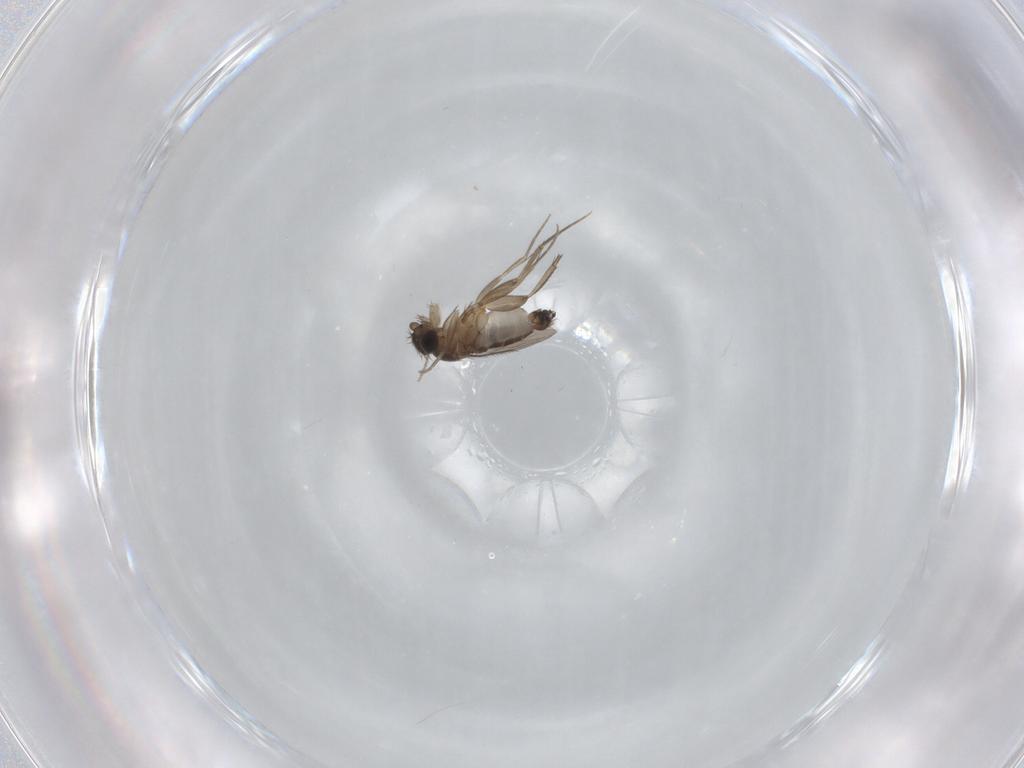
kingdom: Animalia
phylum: Arthropoda
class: Insecta
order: Diptera
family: Phoridae
